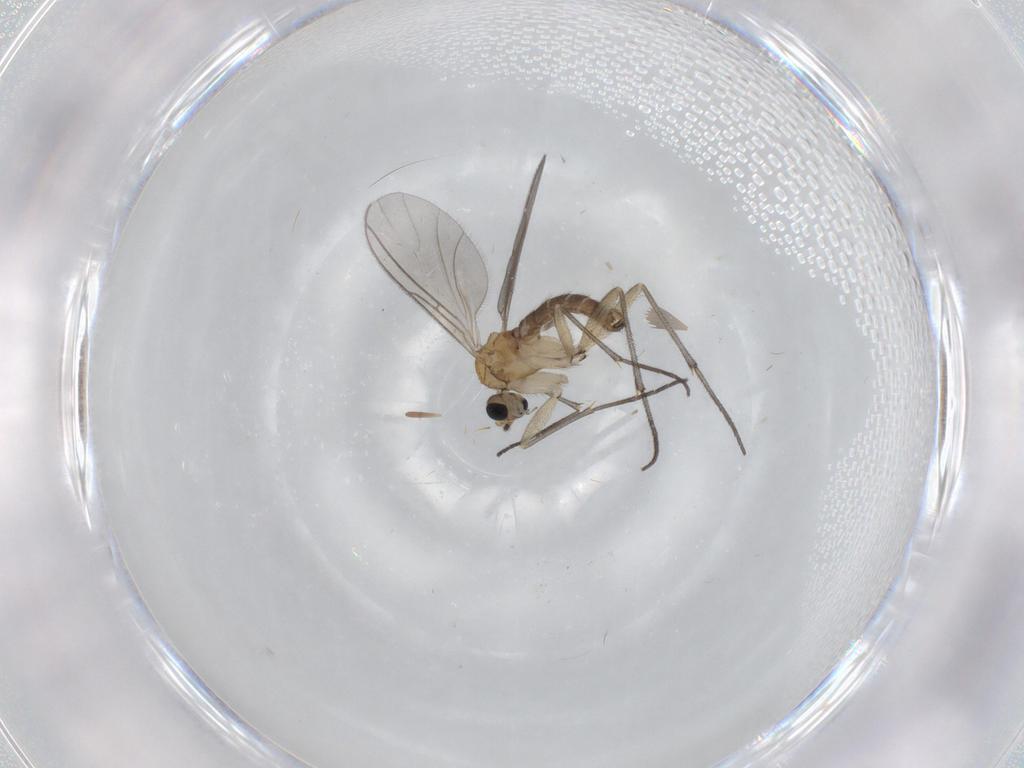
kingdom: Animalia
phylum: Arthropoda
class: Insecta
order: Diptera
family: Sciaridae
